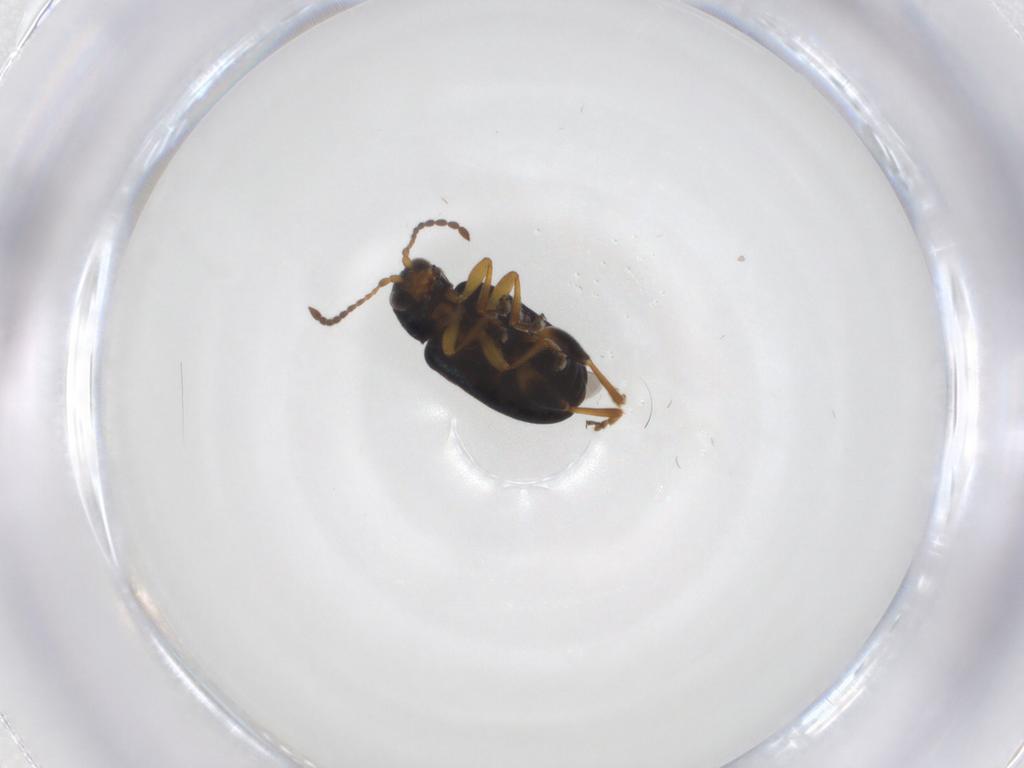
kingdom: Animalia
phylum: Arthropoda
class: Insecta
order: Coleoptera
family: Chrysomelidae
